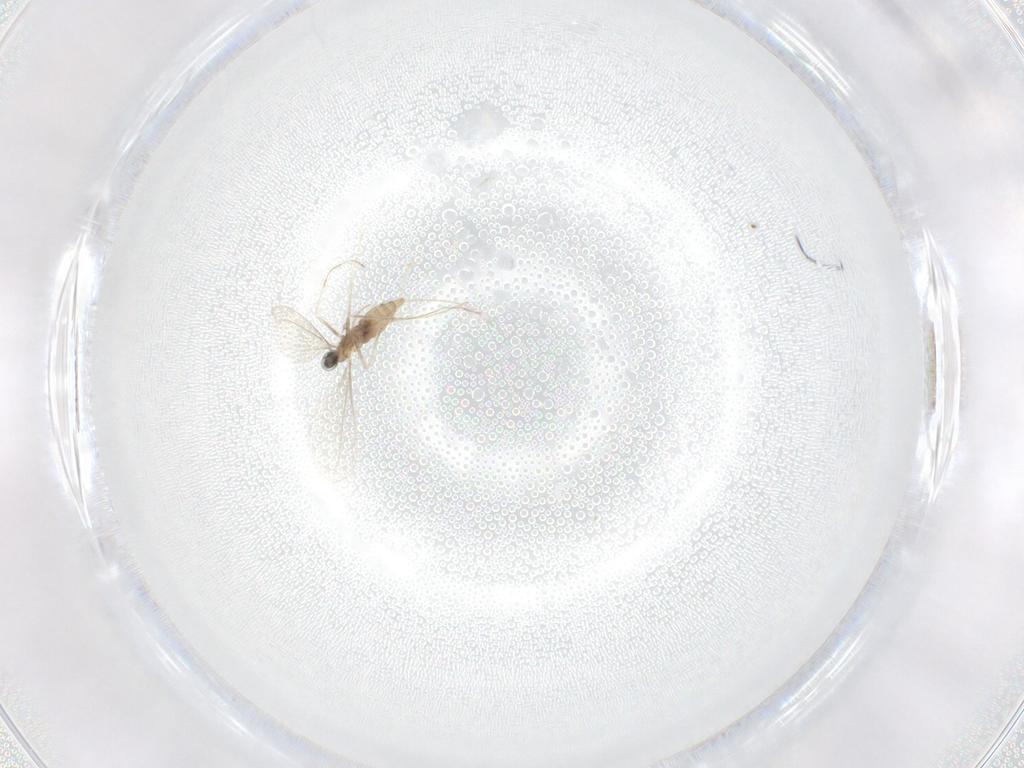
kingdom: Animalia
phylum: Arthropoda
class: Insecta
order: Diptera
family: Cecidomyiidae
